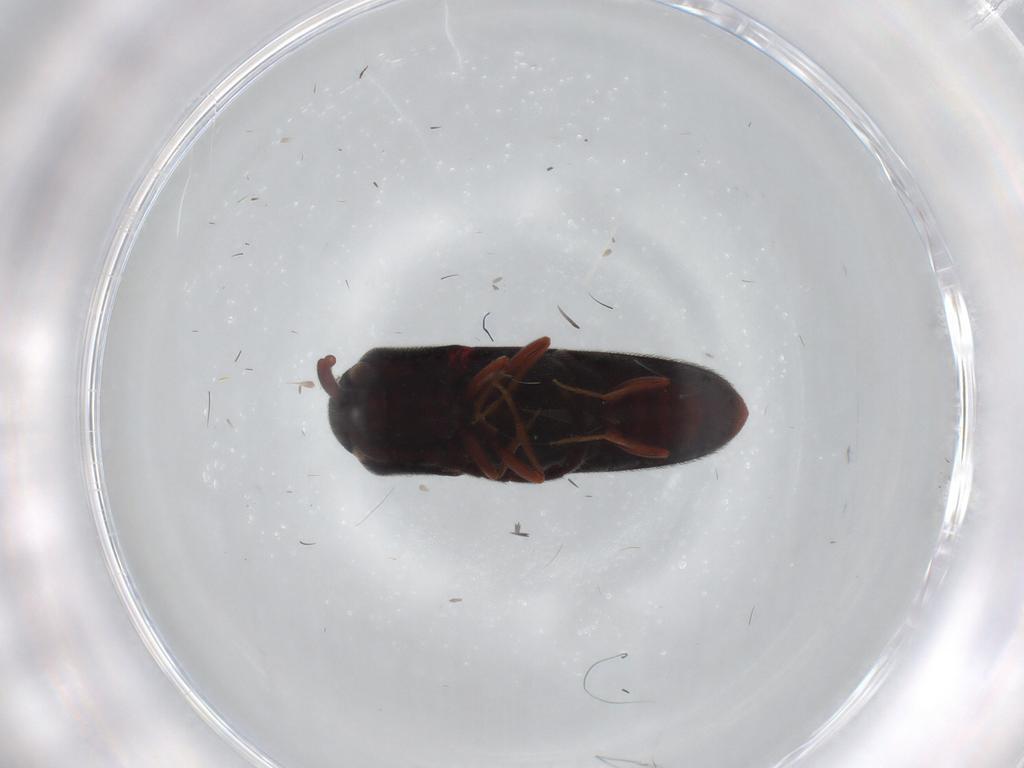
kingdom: Animalia
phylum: Arthropoda
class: Insecta
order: Coleoptera
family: Eucnemidae
